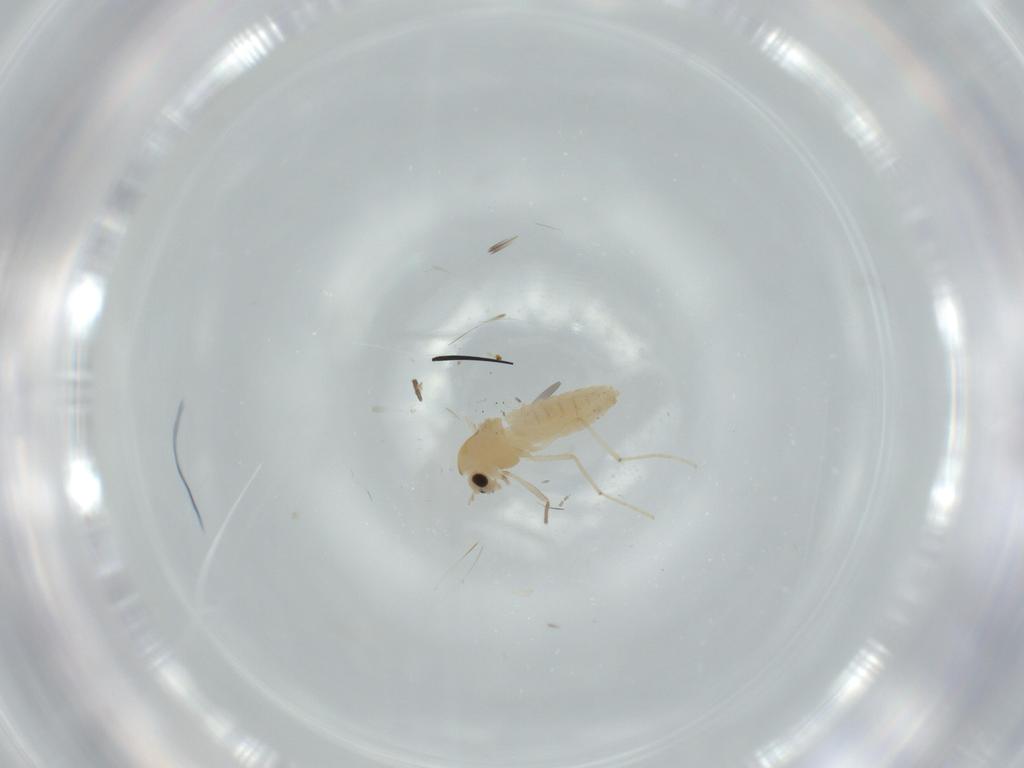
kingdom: Animalia
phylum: Arthropoda
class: Insecta
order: Diptera
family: Chironomidae
